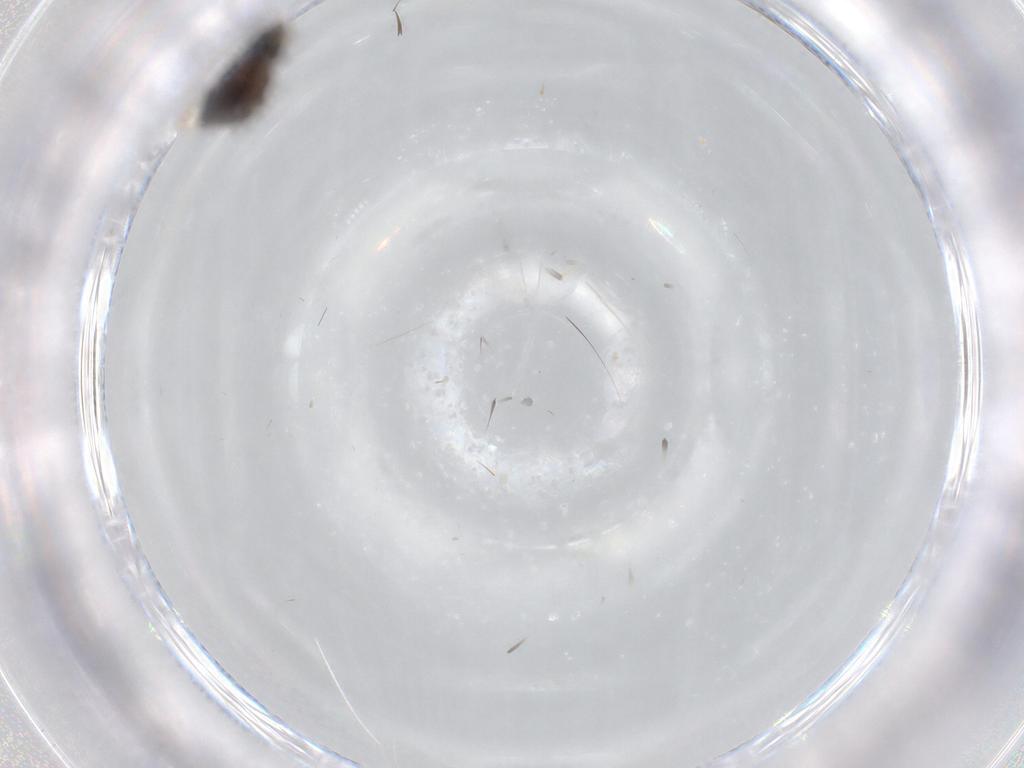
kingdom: Animalia
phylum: Arthropoda
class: Insecta
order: Diptera
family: Phoridae
